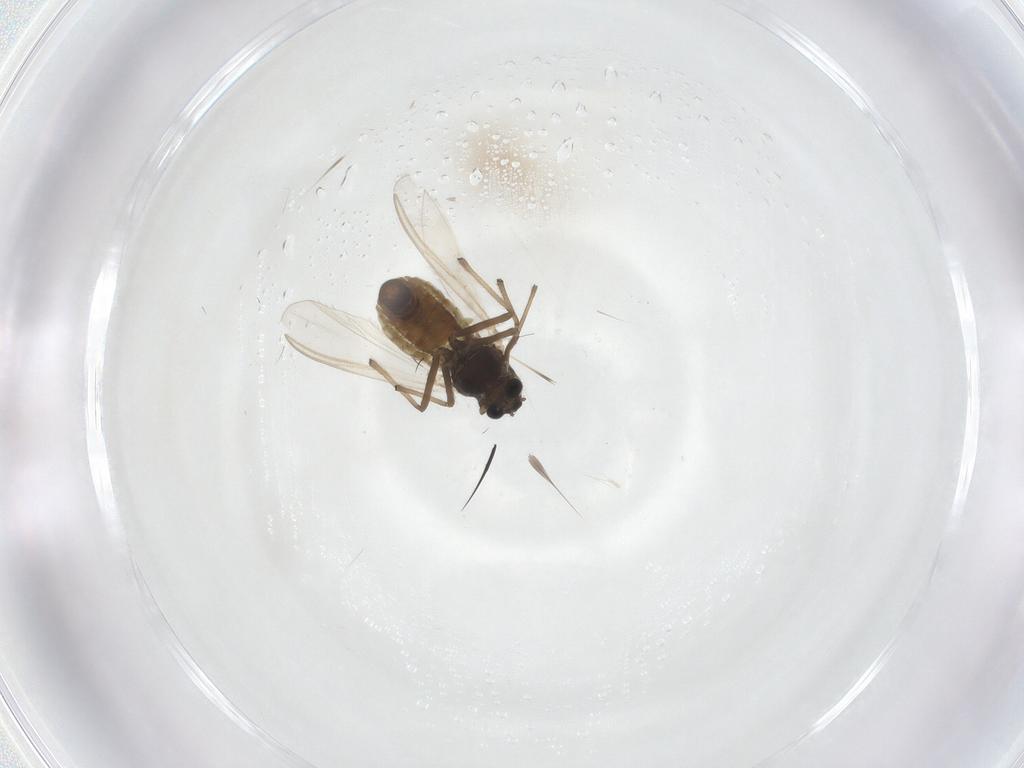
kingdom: Animalia
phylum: Arthropoda
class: Insecta
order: Diptera
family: Chironomidae
